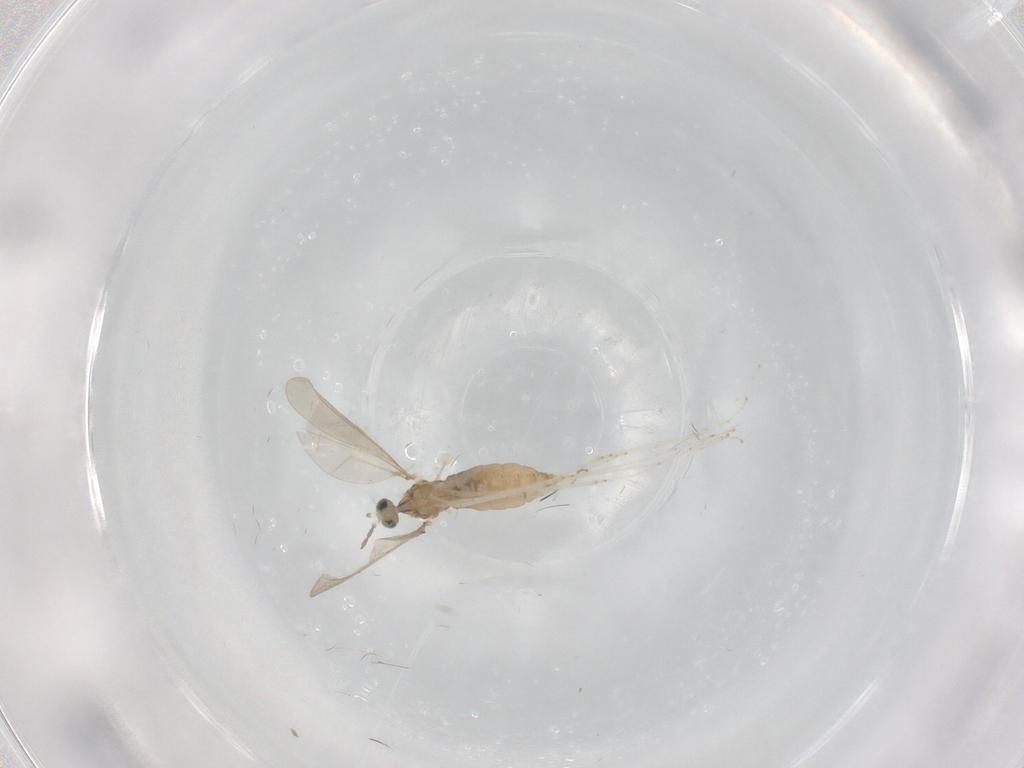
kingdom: Animalia
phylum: Arthropoda
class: Insecta
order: Diptera
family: Cecidomyiidae
